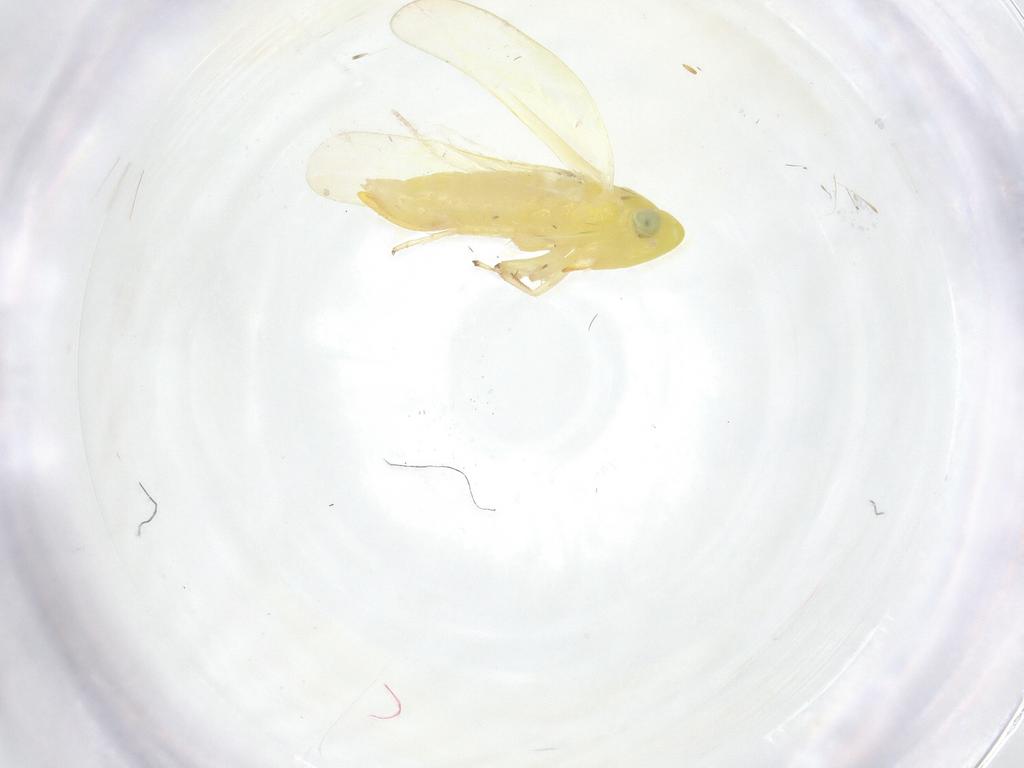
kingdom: Animalia
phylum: Arthropoda
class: Insecta
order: Hemiptera
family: Cicadellidae
